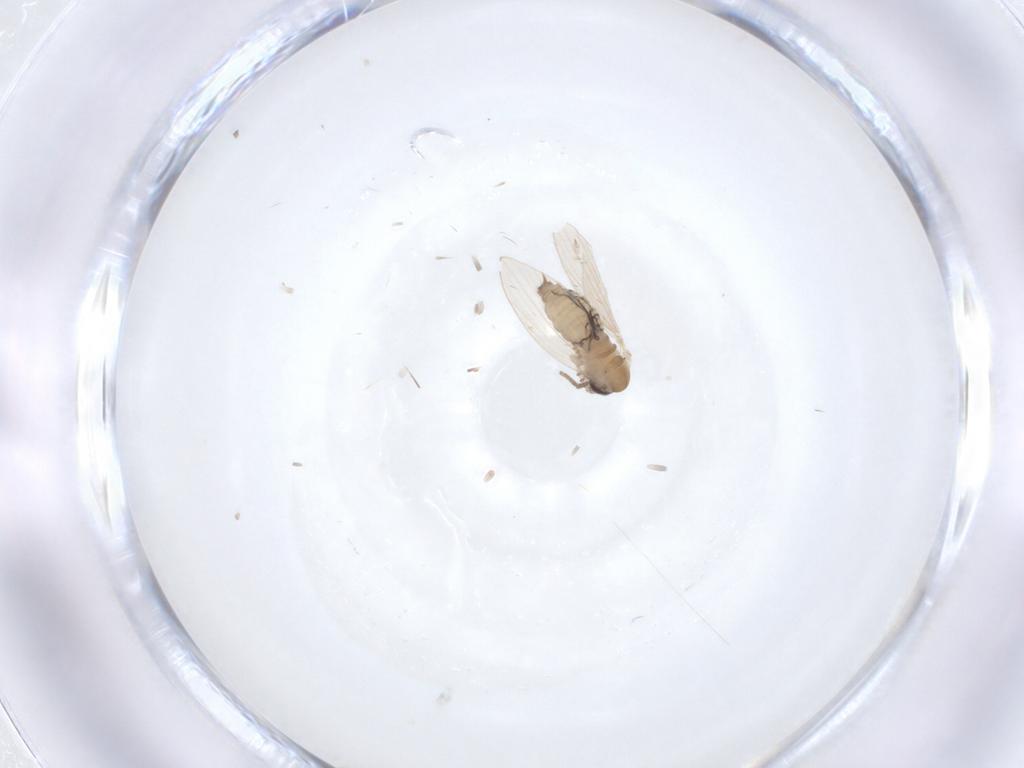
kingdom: Animalia
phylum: Arthropoda
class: Insecta
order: Diptera
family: Psychodidae
